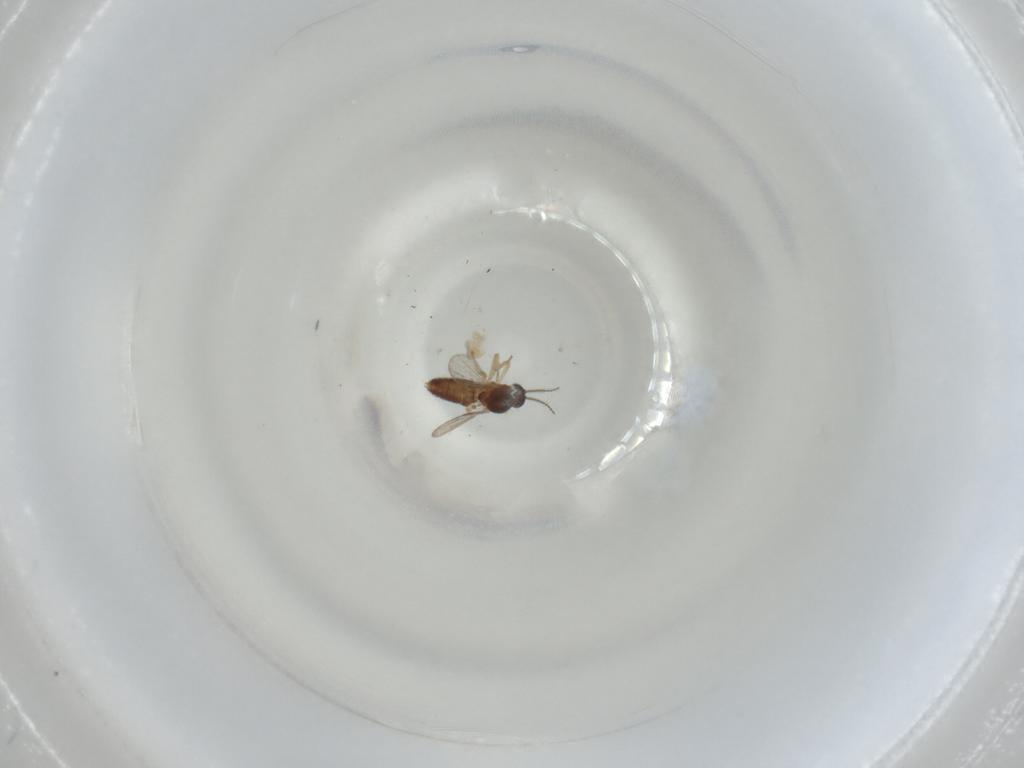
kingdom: Animalia
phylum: Arthropoda
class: Insecta
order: Diptera
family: Ceratopogonidae
